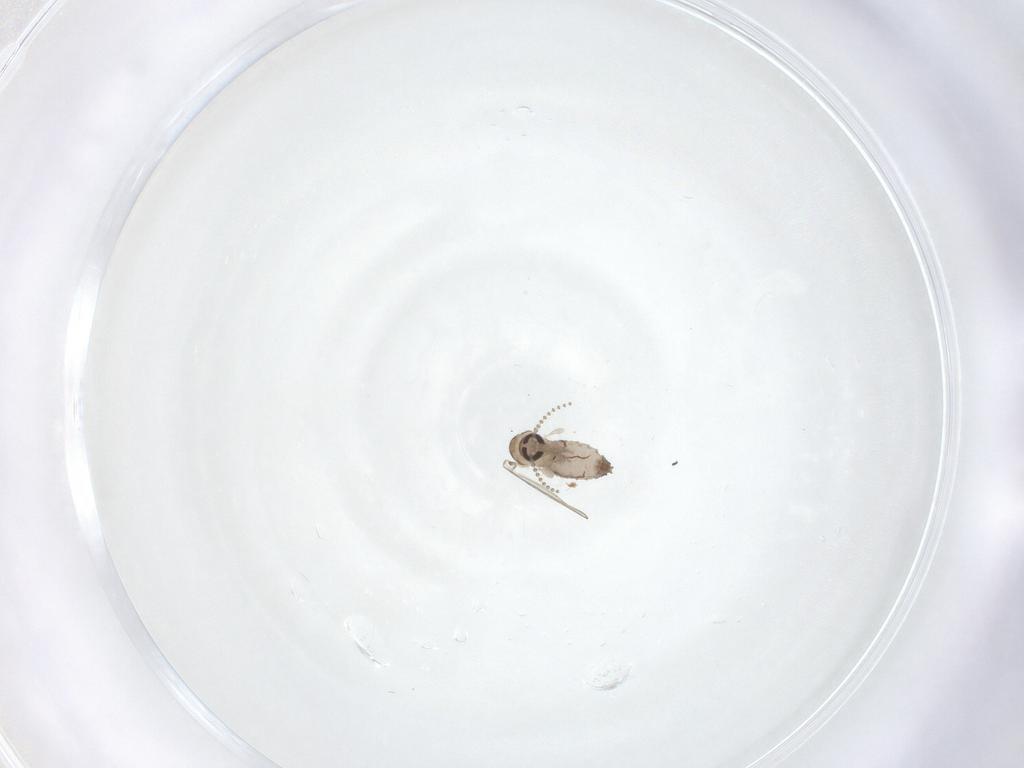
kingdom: Animalia
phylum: Arthropoda
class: Insecta
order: Diptera
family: Psychodidae
